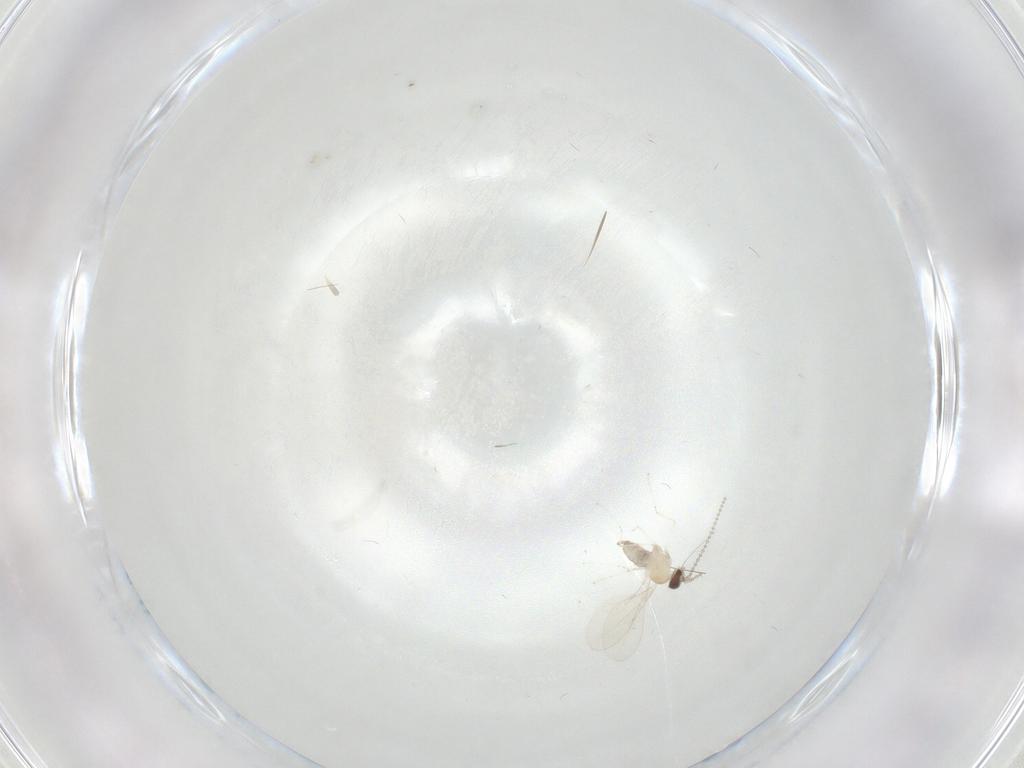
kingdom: Animalia
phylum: Arthropoda
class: Insecta
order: Diptera
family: Cecidomyiidae
